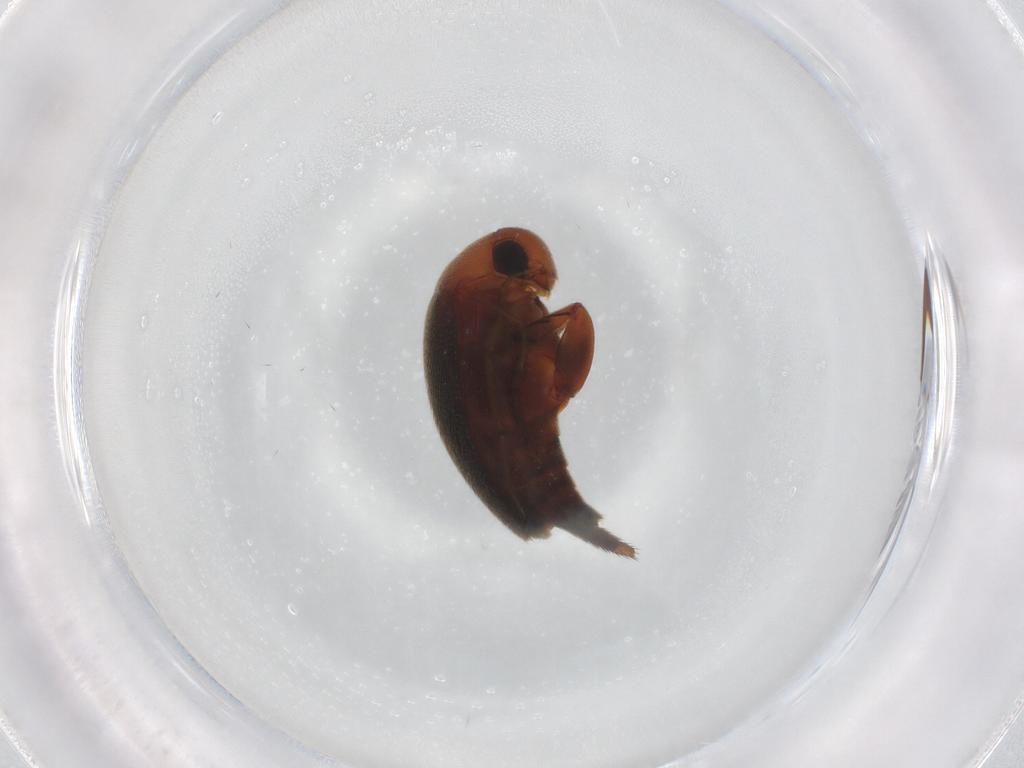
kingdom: Animalia
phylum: Arthropoda
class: Insecta
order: Coleoptera
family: Mordellidae
